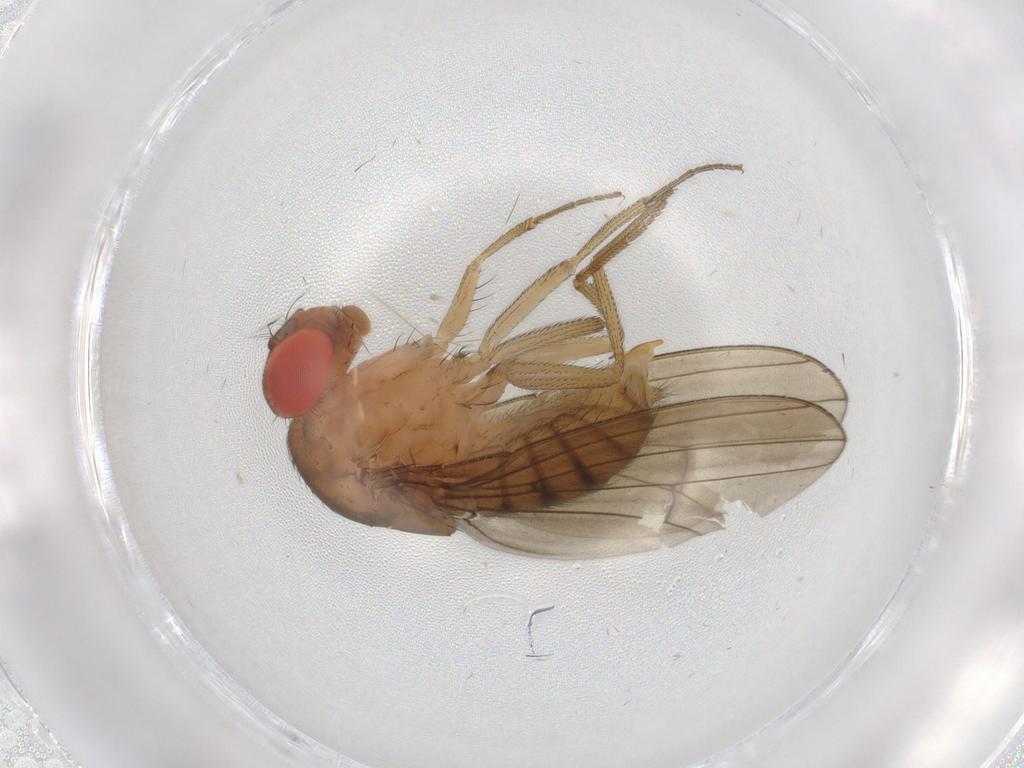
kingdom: Animalia
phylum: Arthropoda
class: Insecta
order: Diptera
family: Drosophilidae
